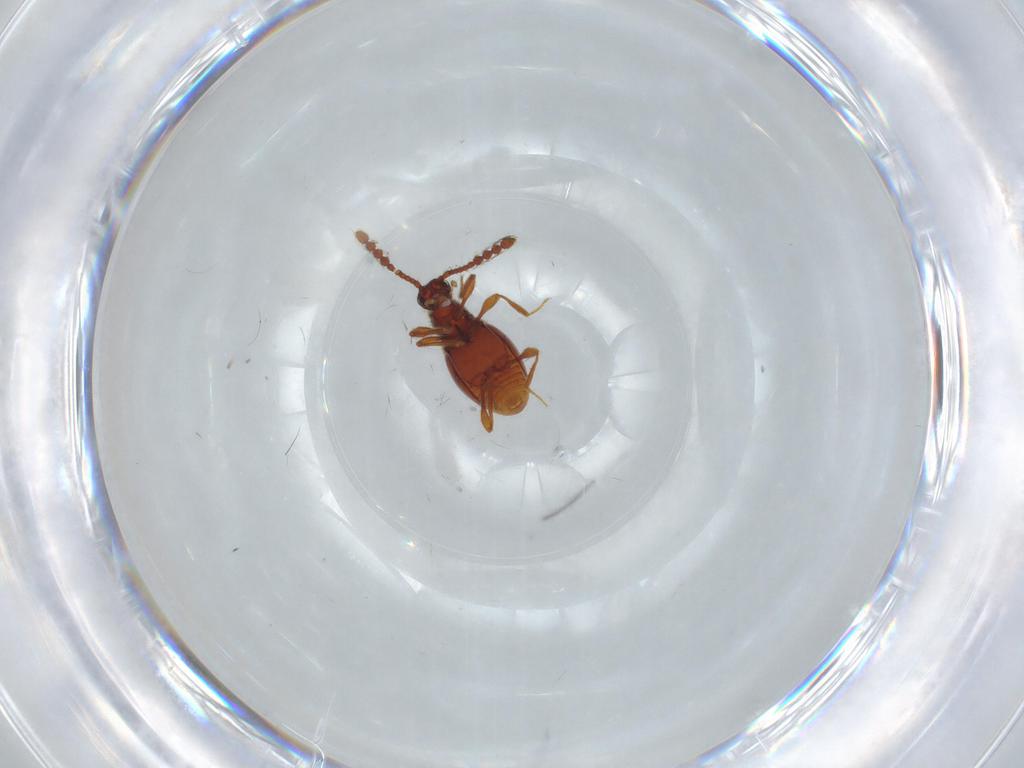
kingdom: Animalia
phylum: Arthropoda
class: Insecta
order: Coleoptera
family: Staphylinidae
